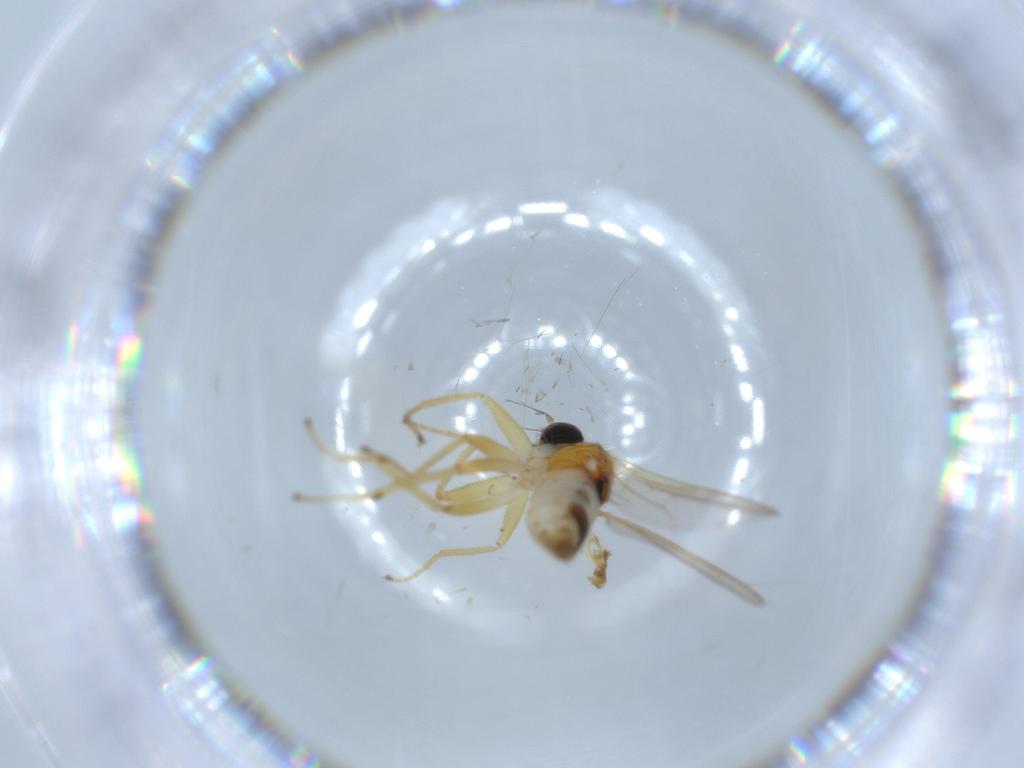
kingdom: Animalia
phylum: Arthropoda
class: Insecta
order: Diptera
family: Hybotidae
